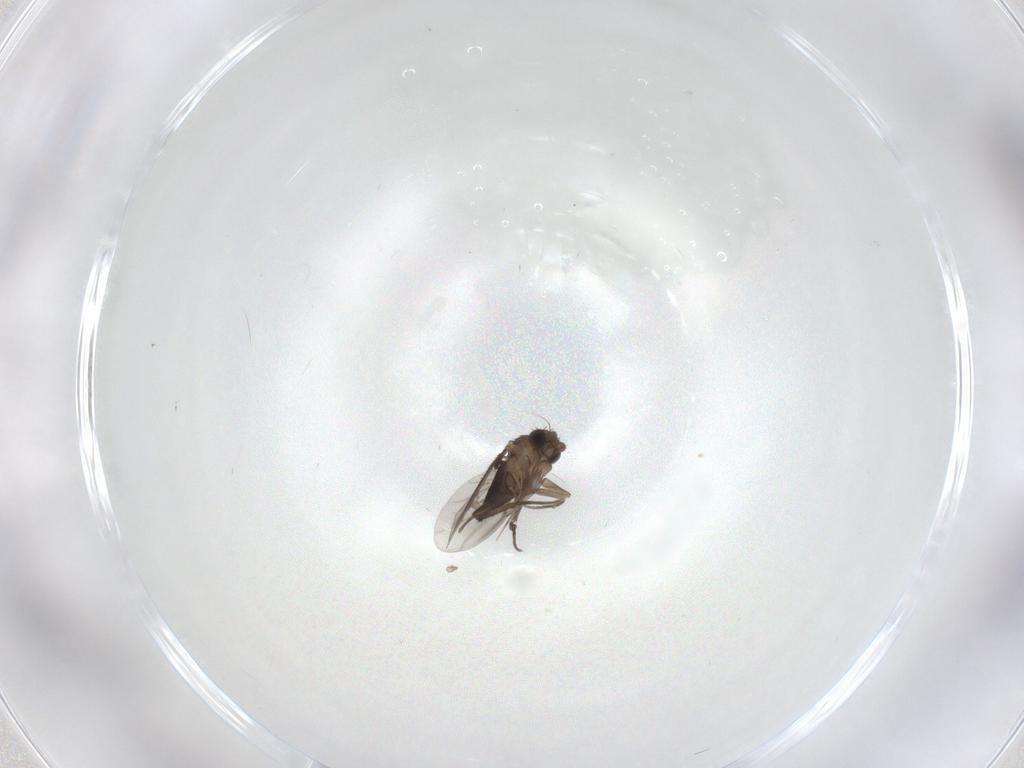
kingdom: Animalia
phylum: Arthropoda
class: Insecta
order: Diptera
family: Phoridae
